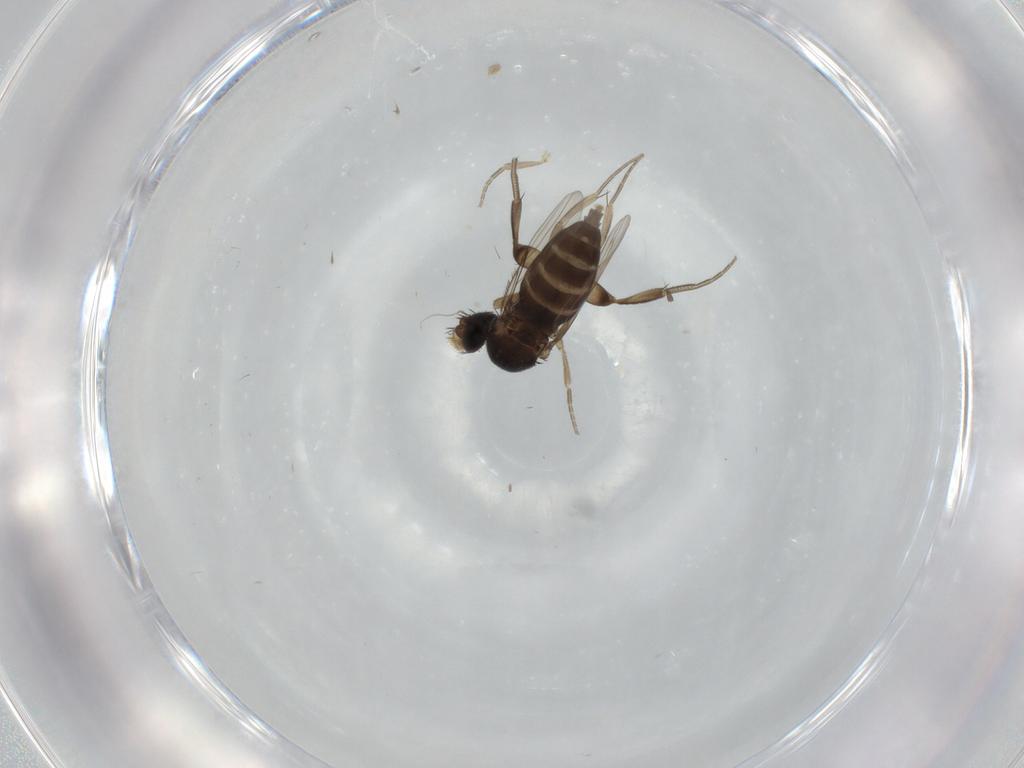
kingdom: Animalia
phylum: Arthropoda
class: Insecta
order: Diptera
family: Phoridae
